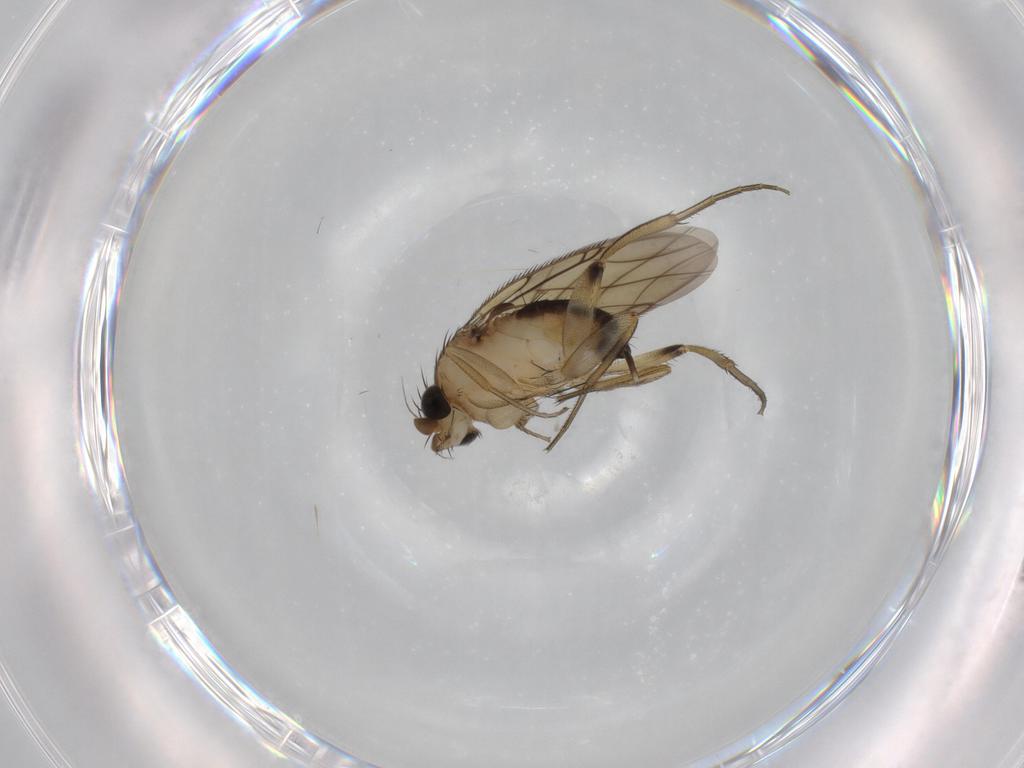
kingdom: Animalia
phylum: Arthropoda
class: Insecta
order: Diptera
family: Phoridae
